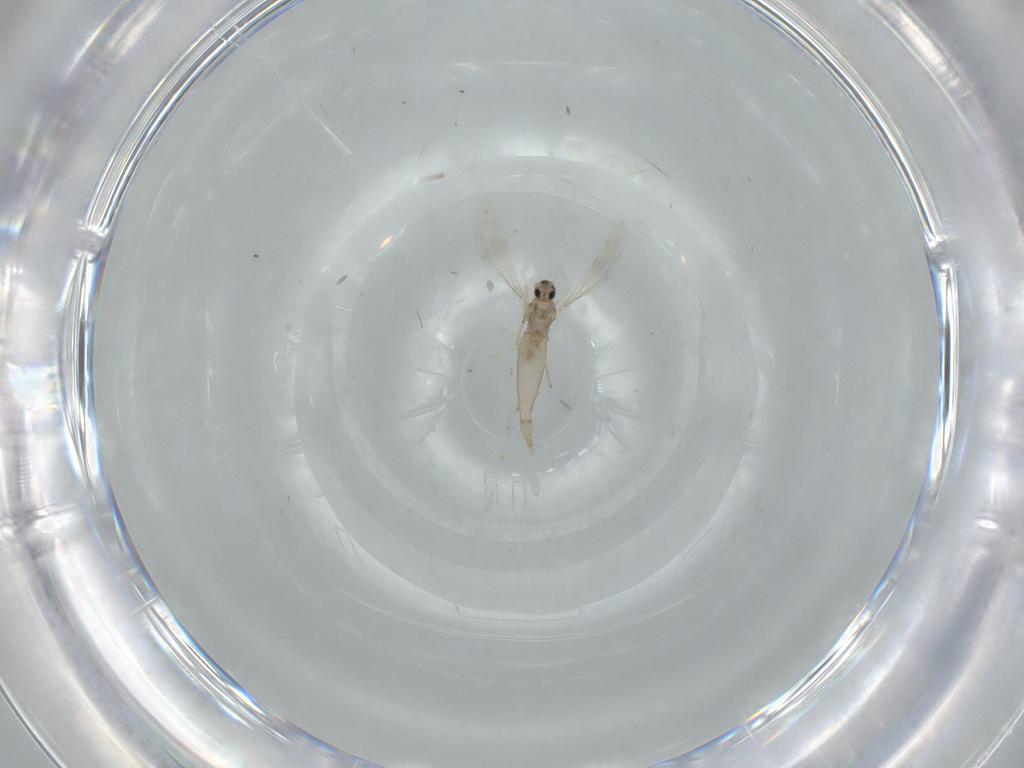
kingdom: Animalia
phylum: Arthropoda
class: Insecta
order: Diptera
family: Cecidomyiidae
